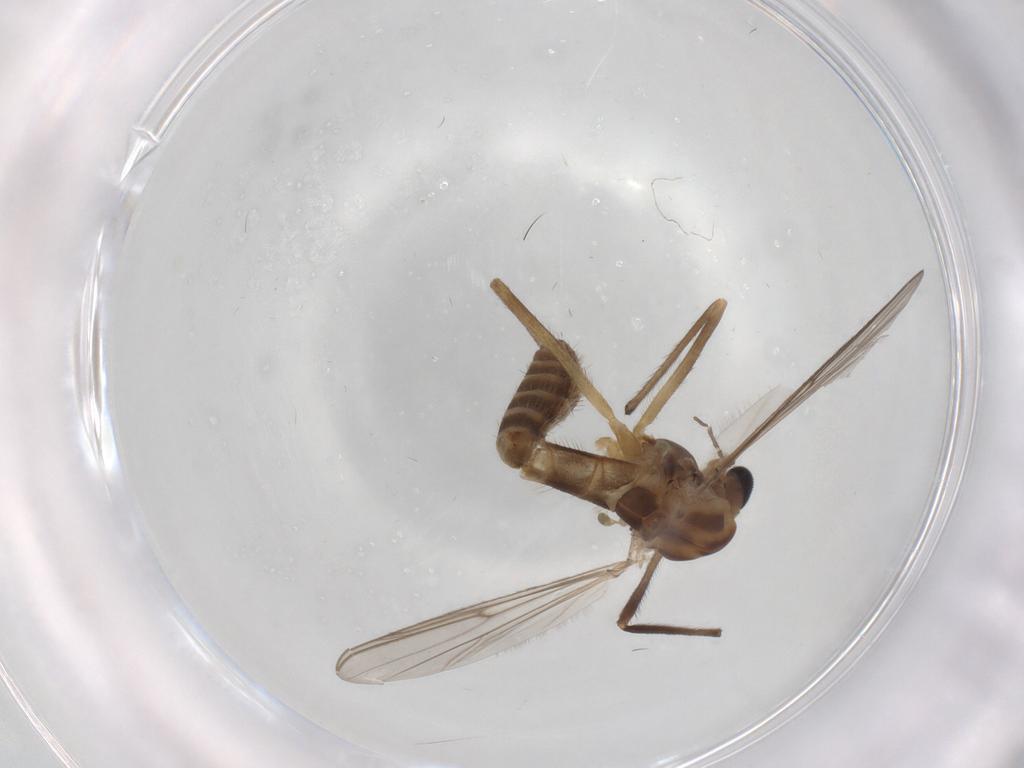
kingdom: Animalia
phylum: Arthropoda
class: Insecta
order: Diptera
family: Chironomidae
